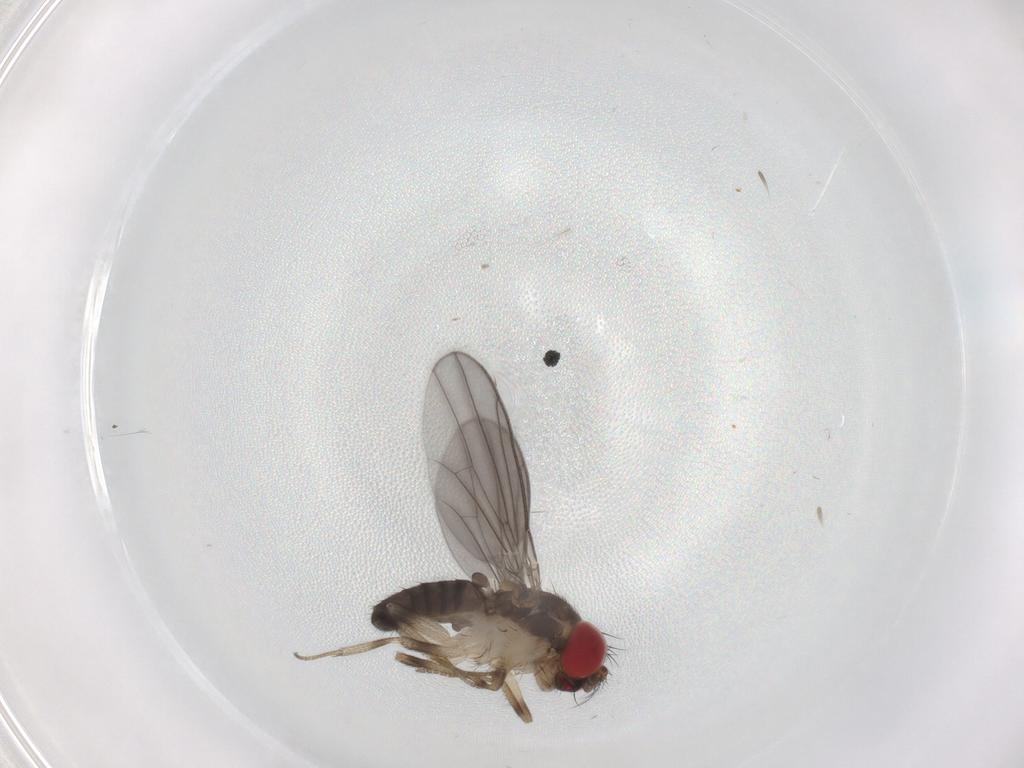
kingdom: Animalia
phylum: Arthropoda
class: Insecta
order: Diptera
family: Drosophilidae
